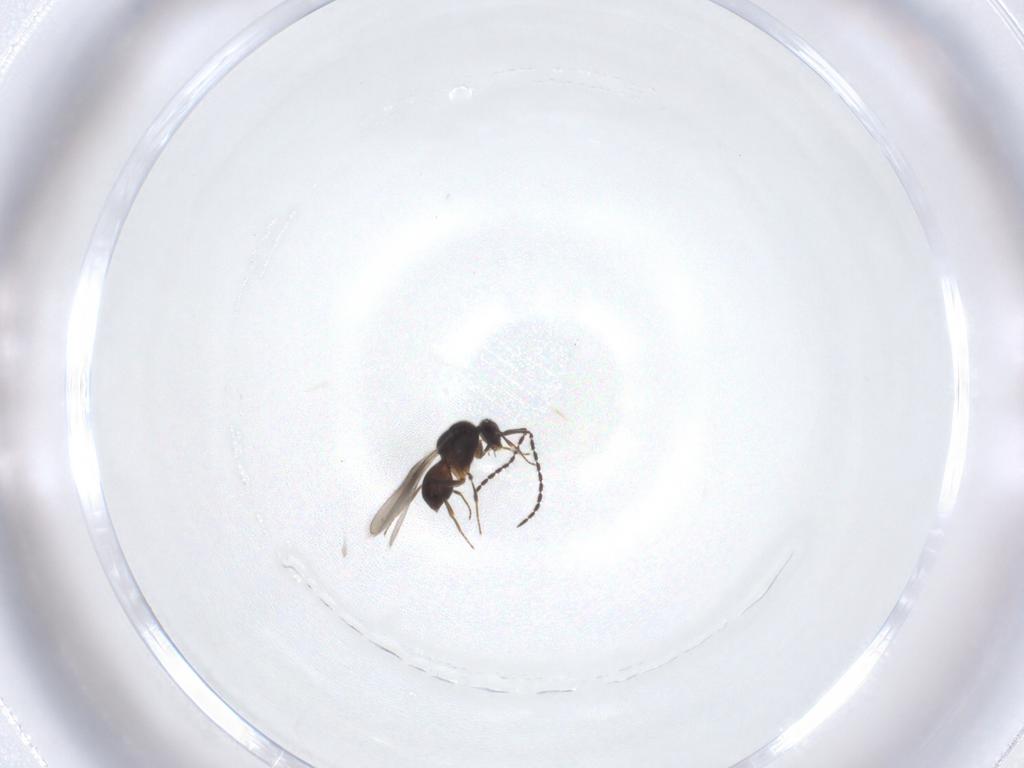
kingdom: Animalia
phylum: Arthropoda
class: Insecta
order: Hymenoptera
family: Ceraphronidae
